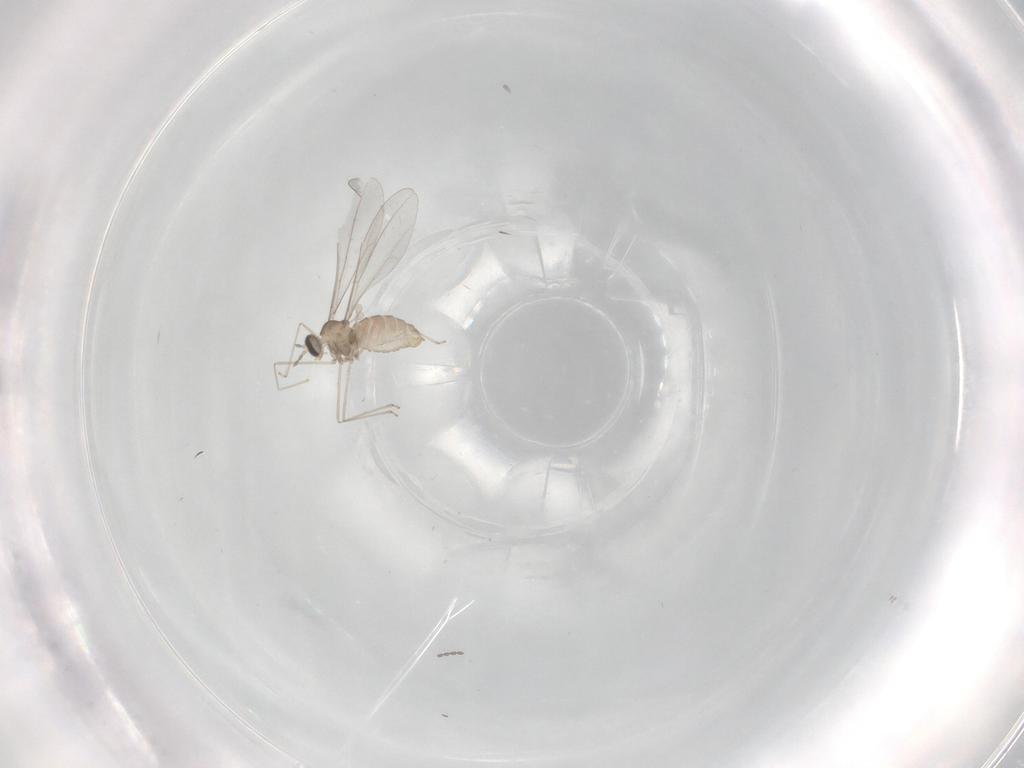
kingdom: Animalia
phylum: Arthropoda
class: Insecta
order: Diptera
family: Cecidomyiidae
